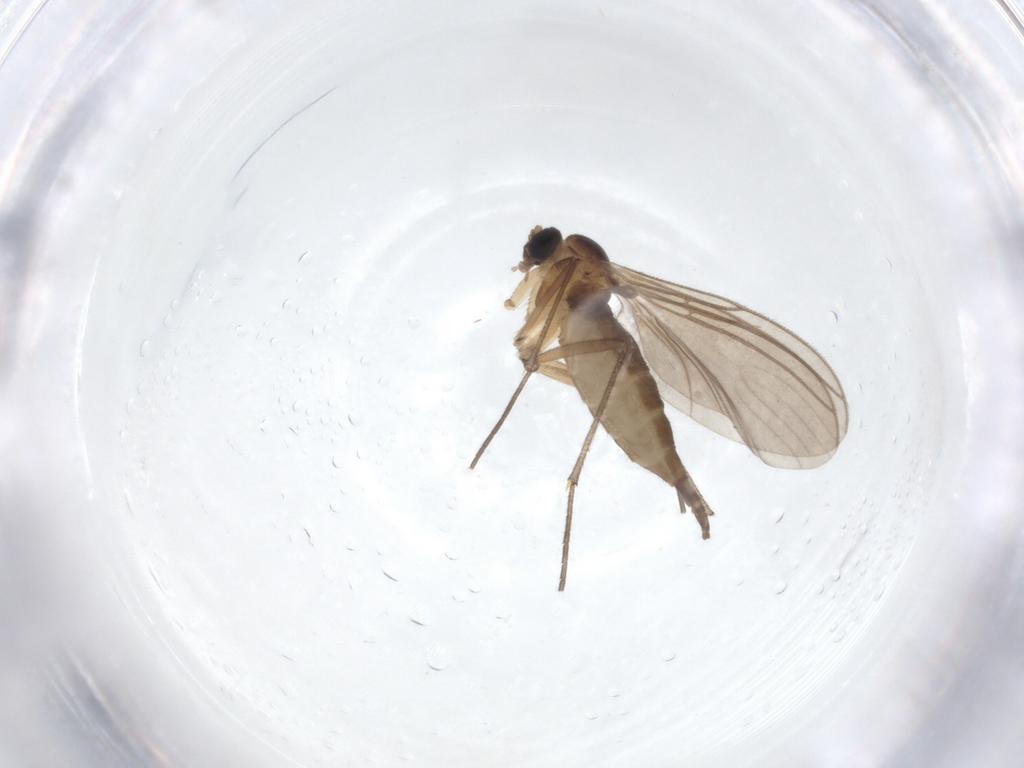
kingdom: Animalia
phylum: Arthropoda
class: Insecta
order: Diptera
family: Sciaridae
